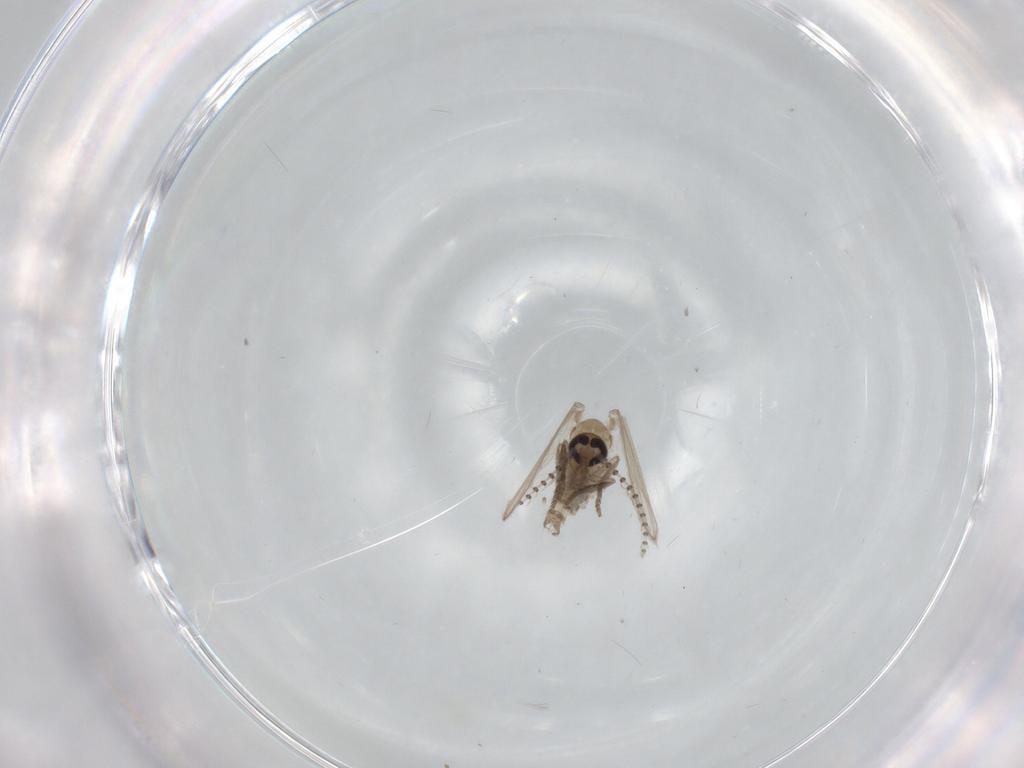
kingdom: Animalia
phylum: Arthropoda
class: Insecta
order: Diptera
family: Psychodidae
